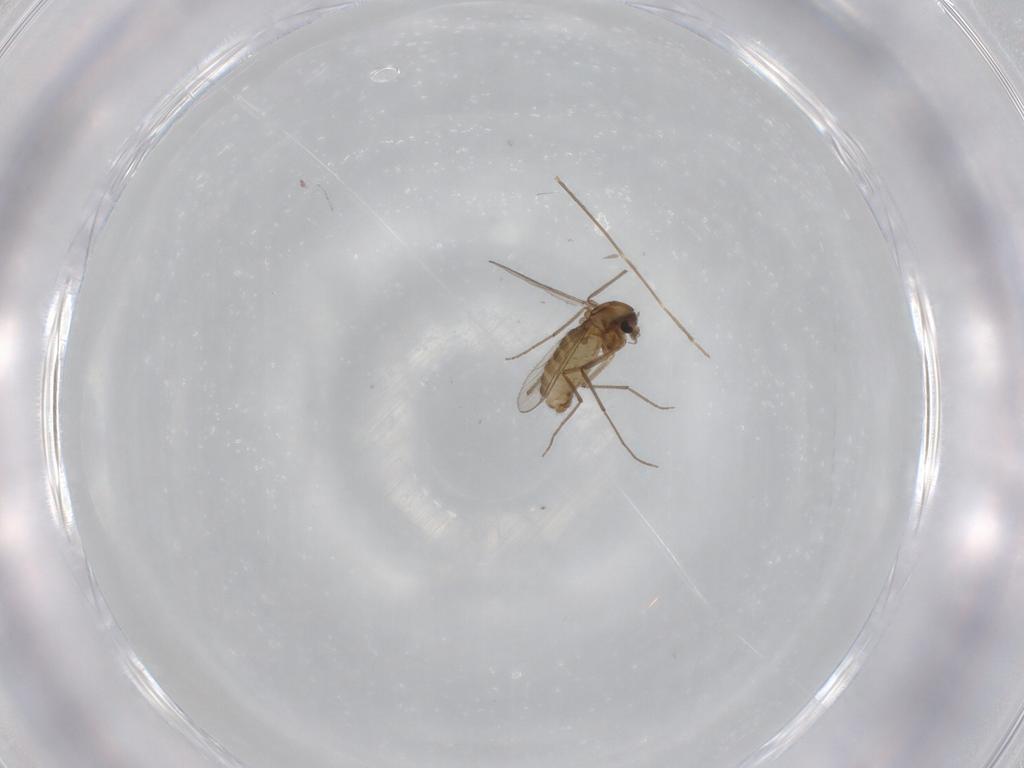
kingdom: Animalia
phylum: Arthropoda
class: Insecta
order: Diptera
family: Chironomidae
